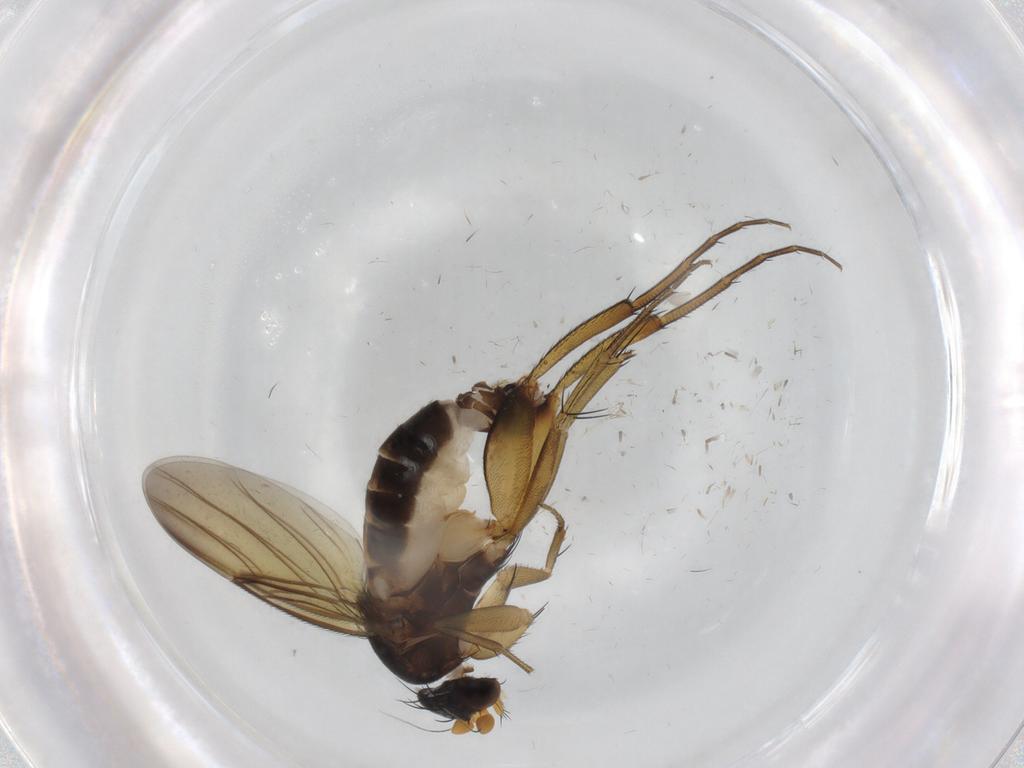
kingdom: Animalia
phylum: Arthropoda
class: Insecta
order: Diptera
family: Phoridae
